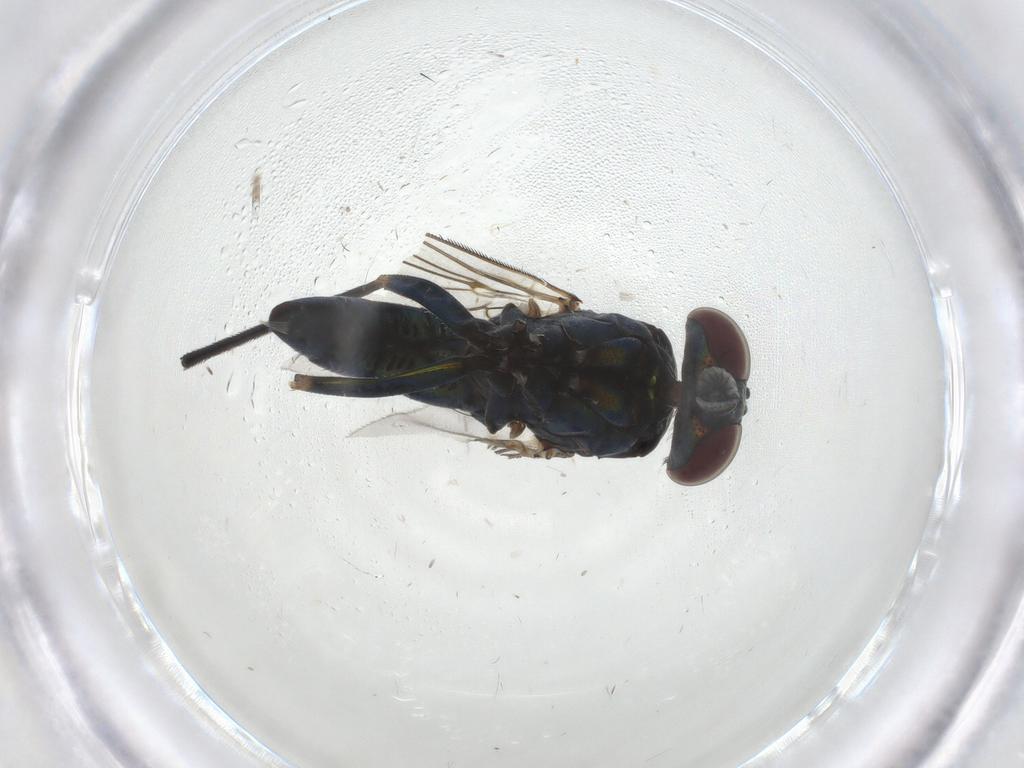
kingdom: Animalia
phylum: Arthropoda
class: Insecta
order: Diptera
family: Dolichopodidae
